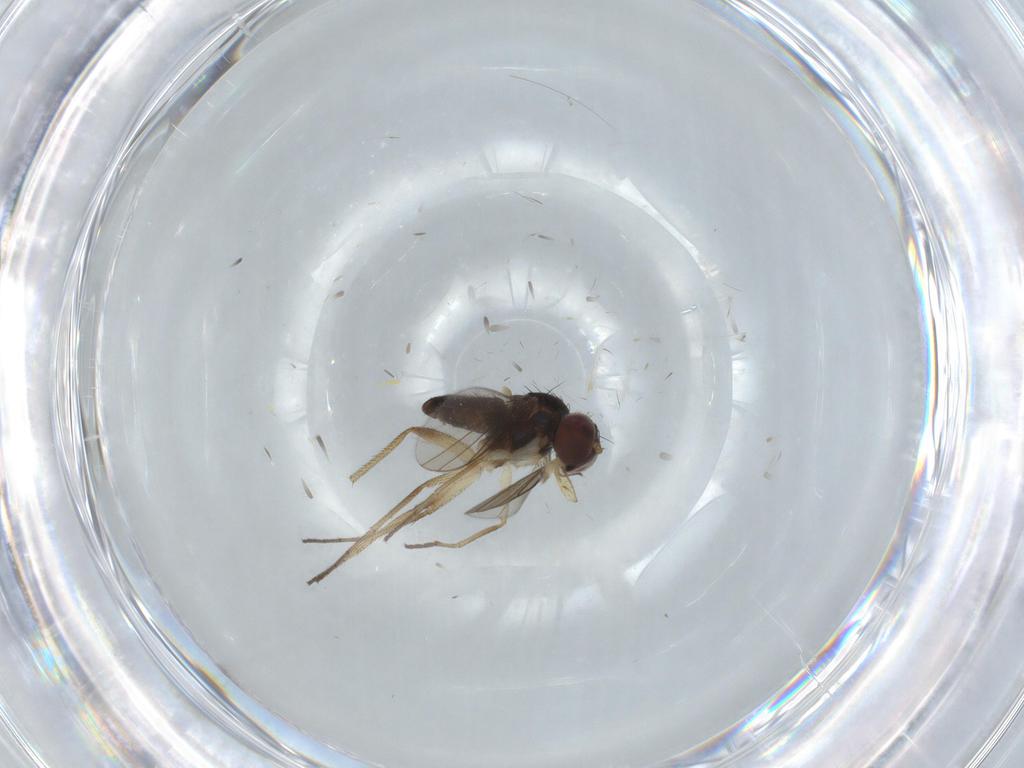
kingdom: Animalia
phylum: Arthropoda
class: Insecta
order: Diptera
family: Dolichopodidae
